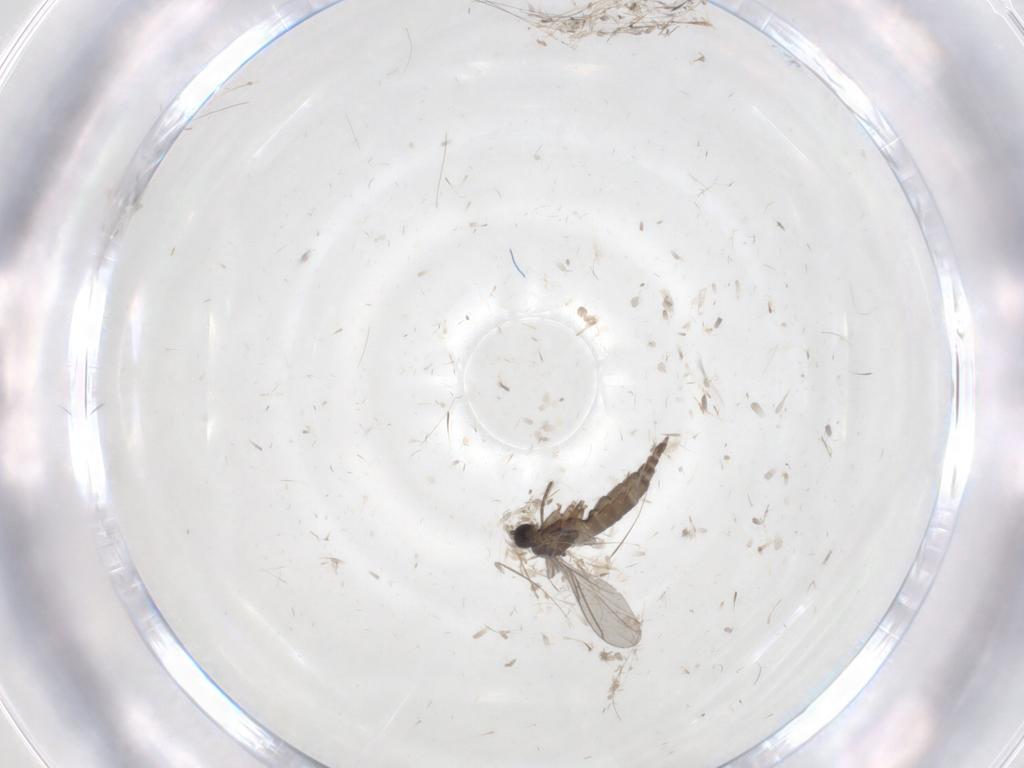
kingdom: Animalia
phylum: Arthropoda
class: Insecta
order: Diptera
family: Sciaridae
